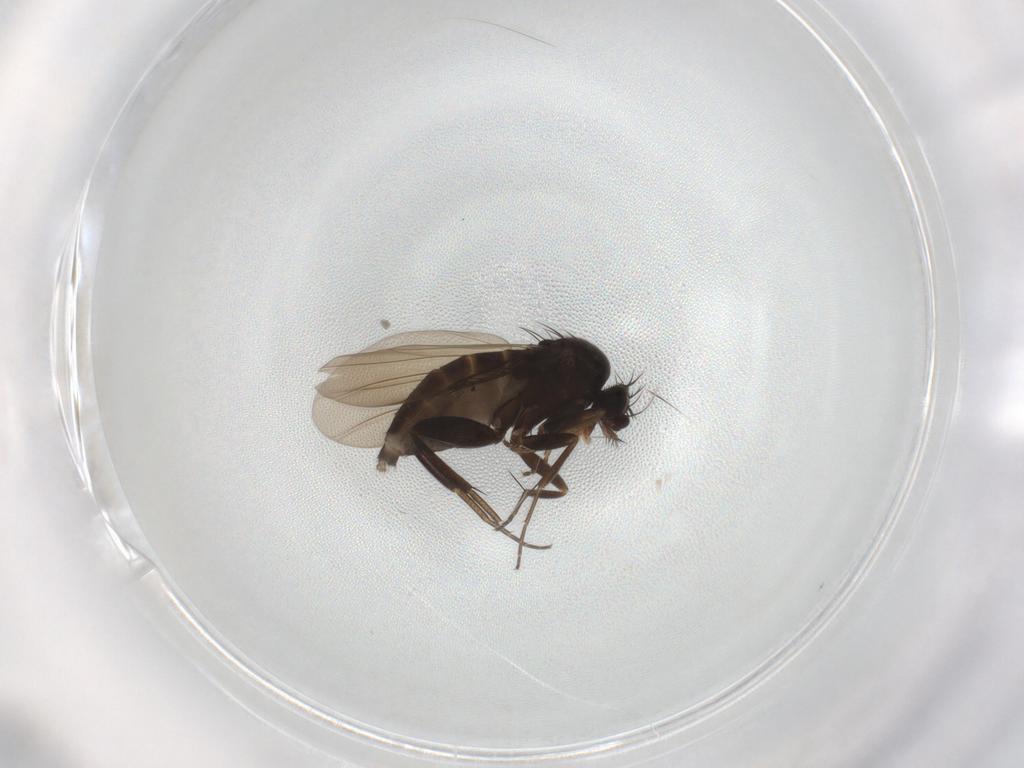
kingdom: Animalia
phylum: Arthropoda
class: Insecta
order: Diptera
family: Phoridae
